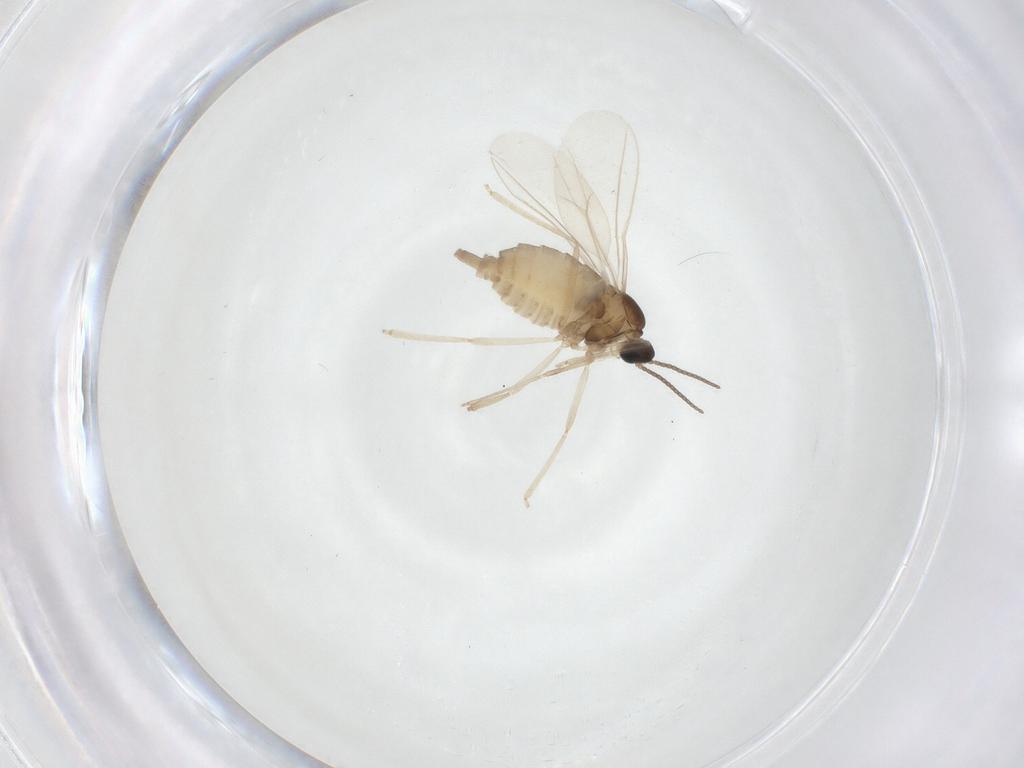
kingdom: Animalia
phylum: Arthropoda
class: Insecta
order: Diptera
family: Cecidomyiidae
